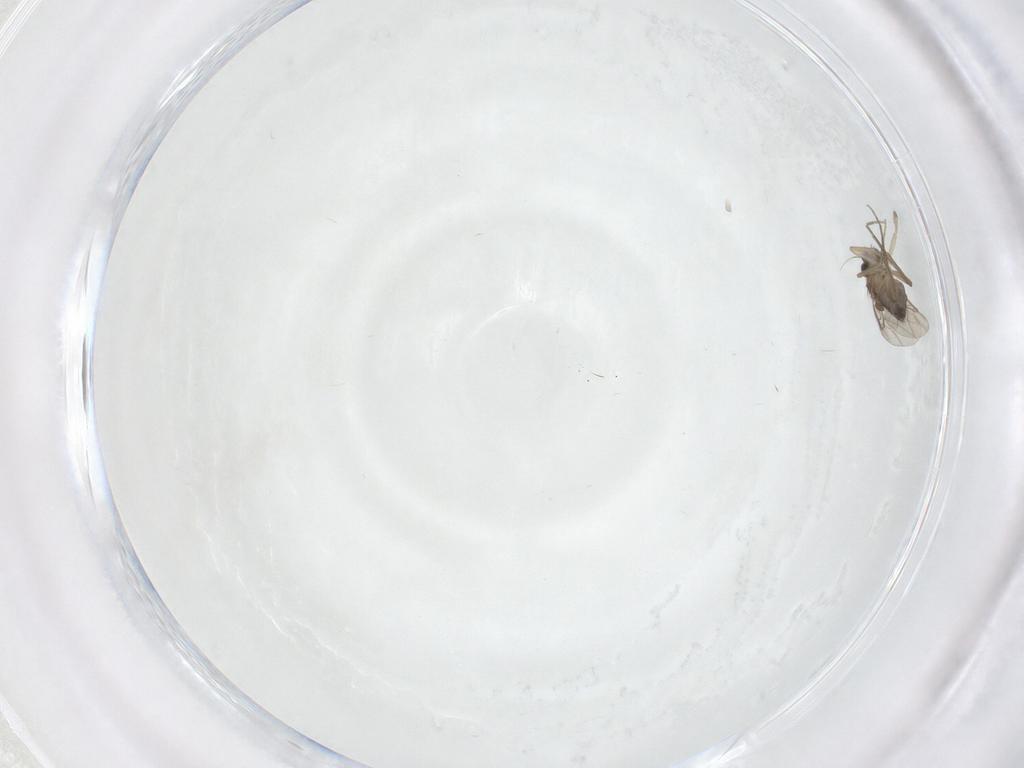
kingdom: Animalia
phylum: Arthropoda
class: Insecta
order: Diptera
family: Phoridae
